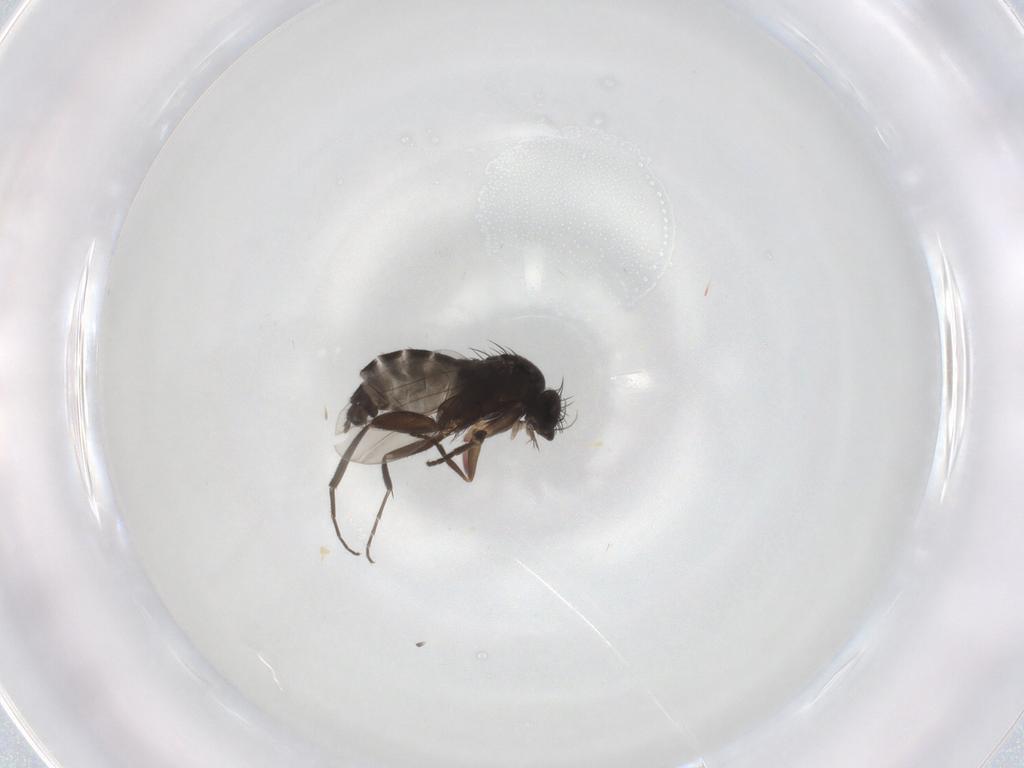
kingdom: Animalia
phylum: Arthropoda
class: Insecta
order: Diptera
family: Phoridae
